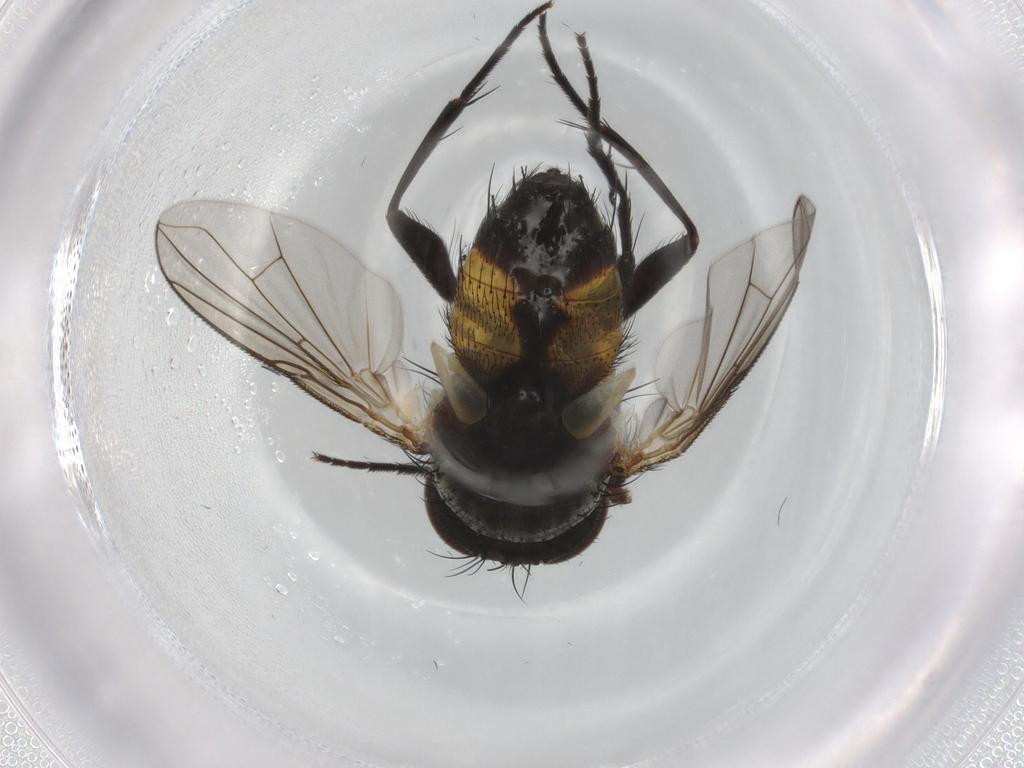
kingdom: Animalia
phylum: Arthropoda
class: Insecta
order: Diptera
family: Tachinidae
